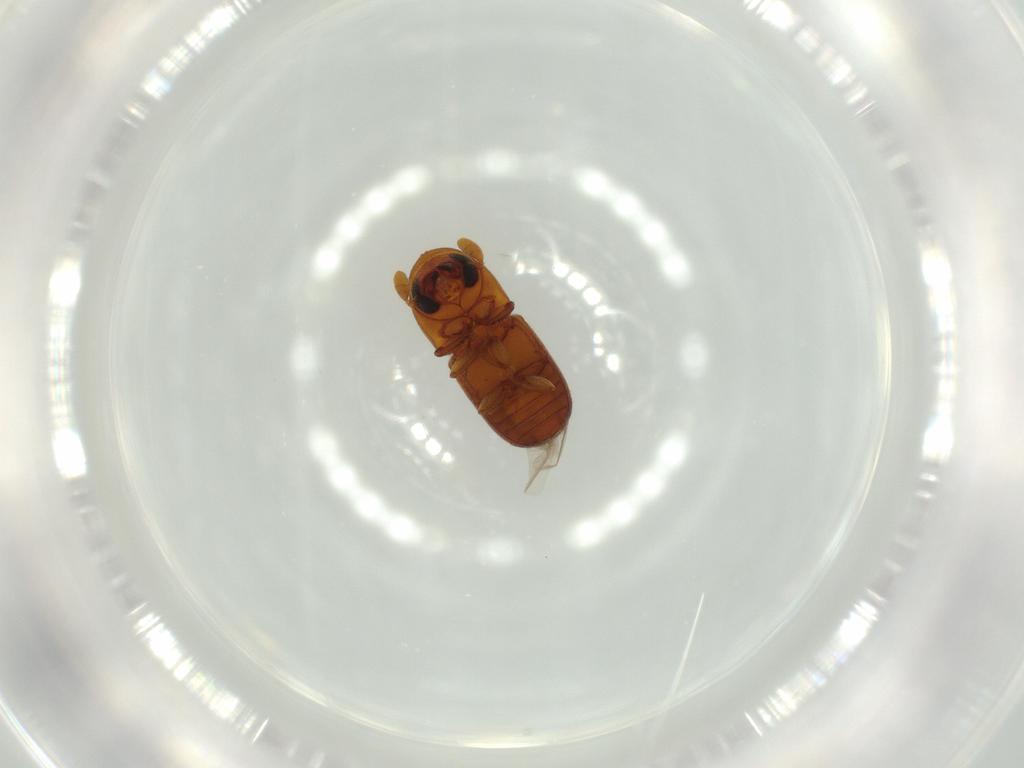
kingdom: Animalia
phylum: Arthropoda
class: Insecta
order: Coleoptera
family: Curculionidae
